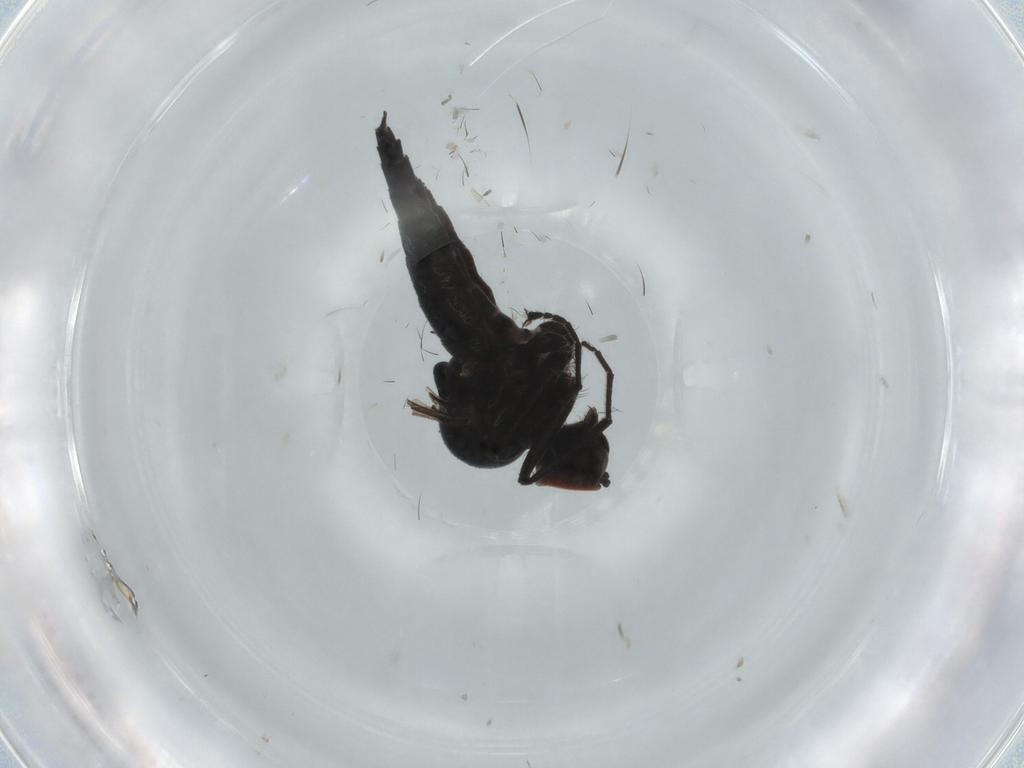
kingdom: Animalia
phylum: Arthropoda
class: Insecta
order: Diptera
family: Hybotidae
